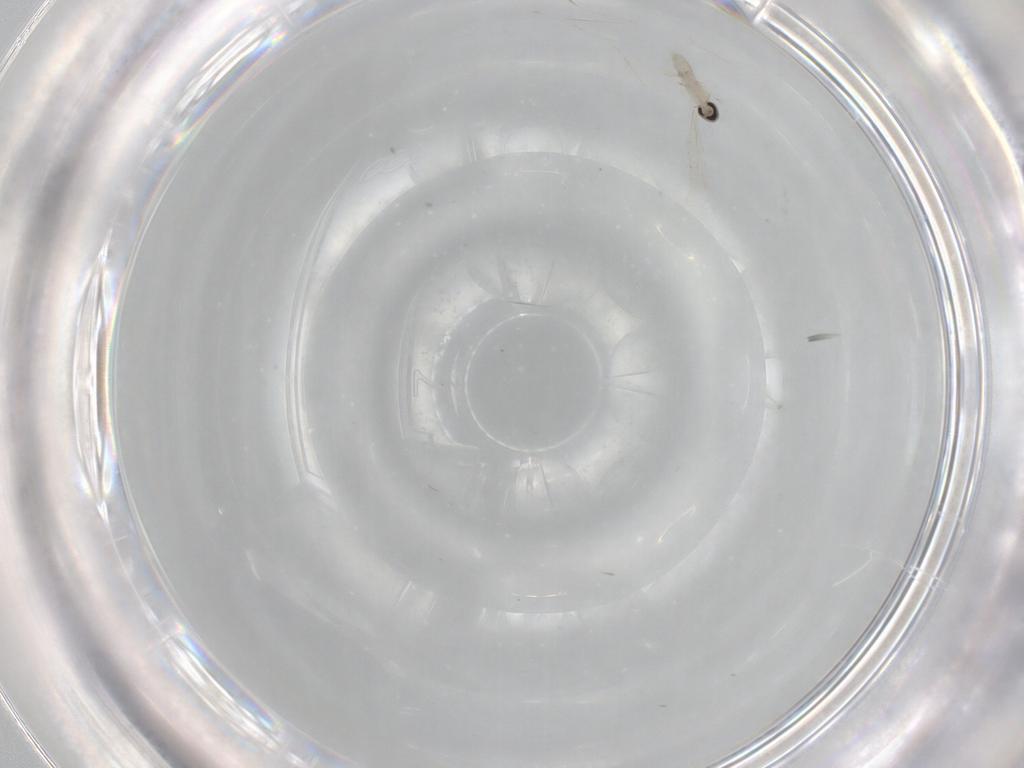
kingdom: Animalia
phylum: Arthropoda
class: Insecta
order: Diptera
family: Cecidomyiidae
